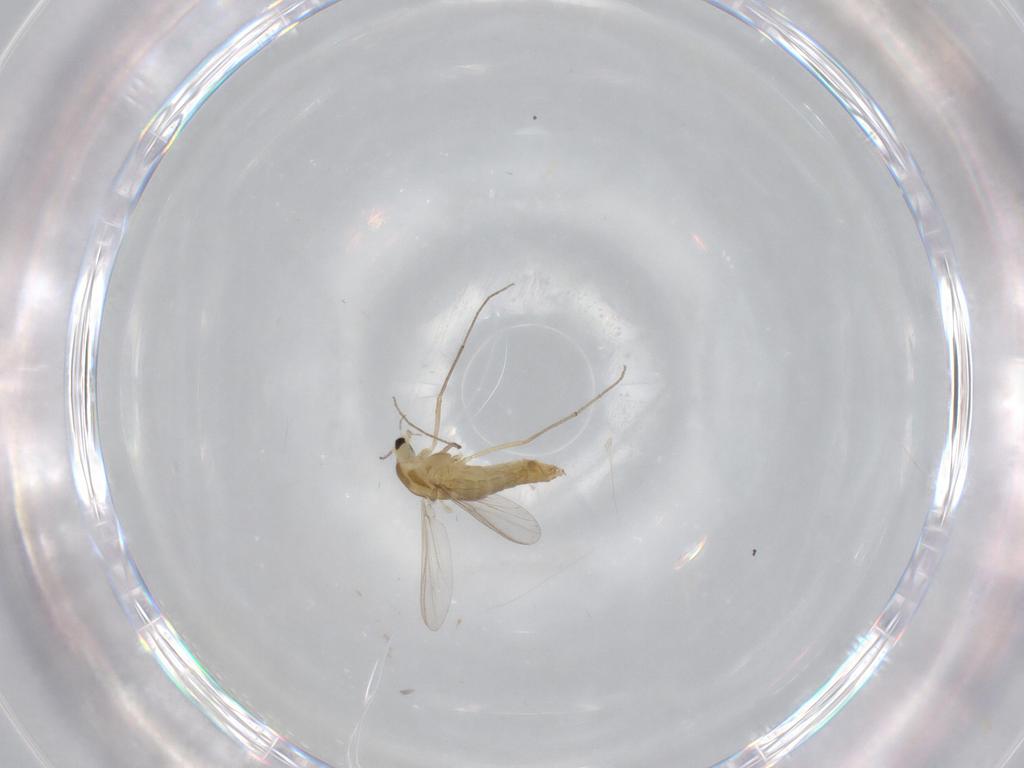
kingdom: Animalia
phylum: Arthropoda
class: Insecta
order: Diptera
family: Chironomidae
